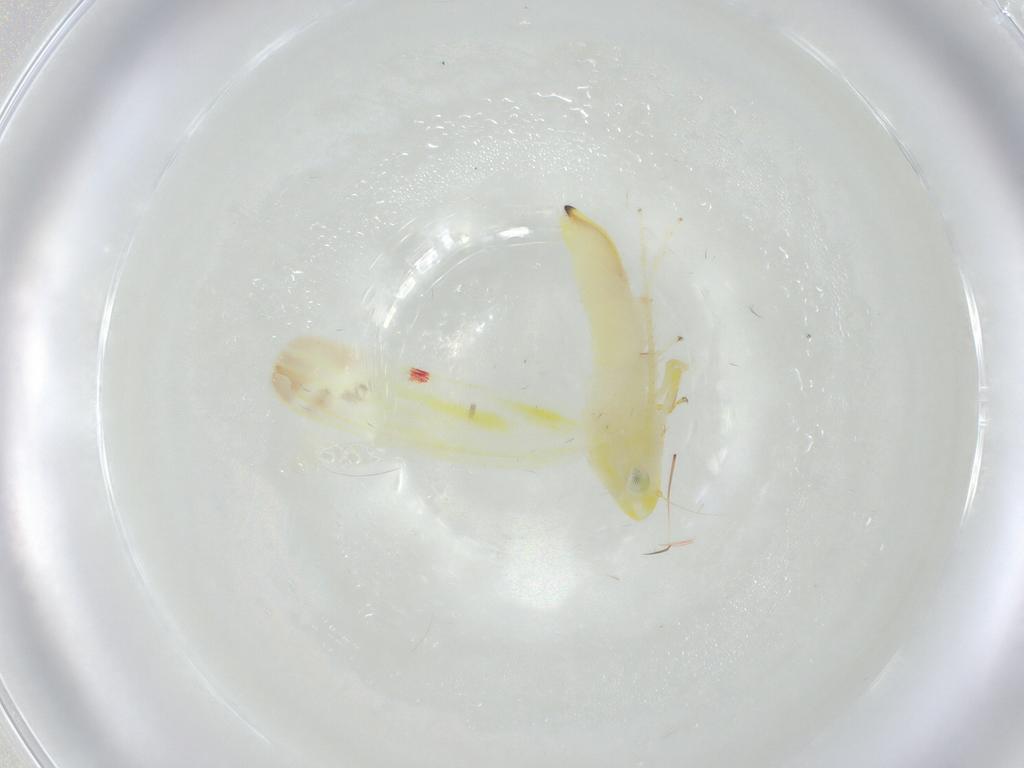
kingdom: Animalia
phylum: Arthropoda
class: Insecta
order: Hemiptera
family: Cicadellidae
